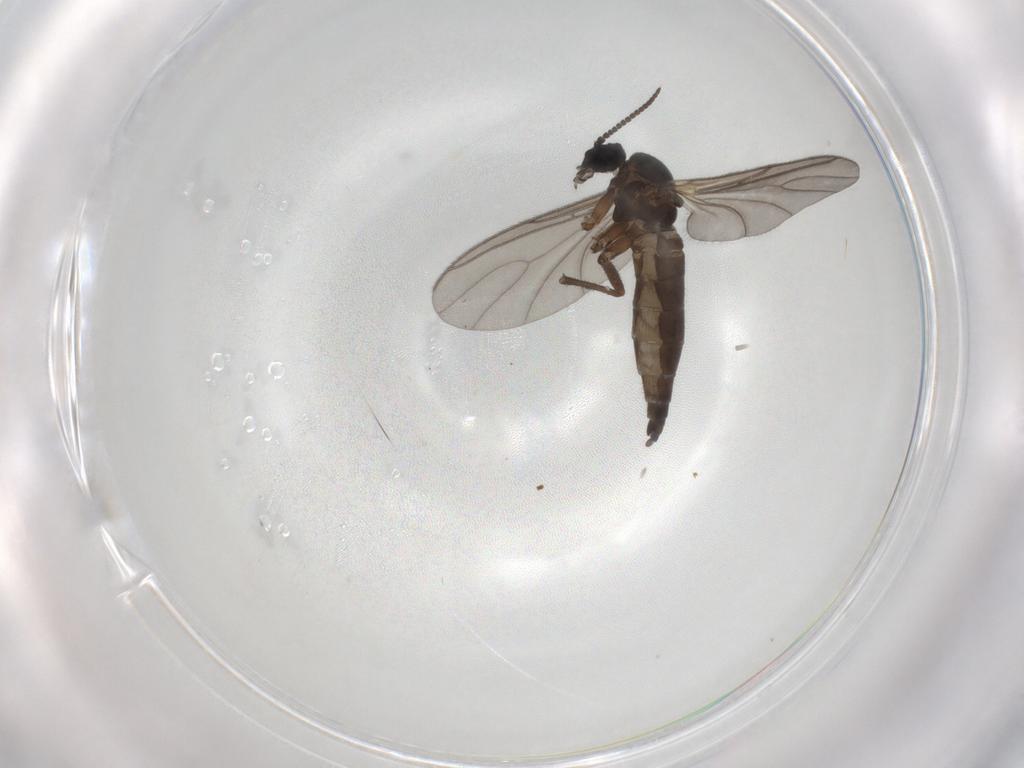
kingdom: Animalia
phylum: Arthropoda
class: Insecta
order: Diptera
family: Sciaridae
